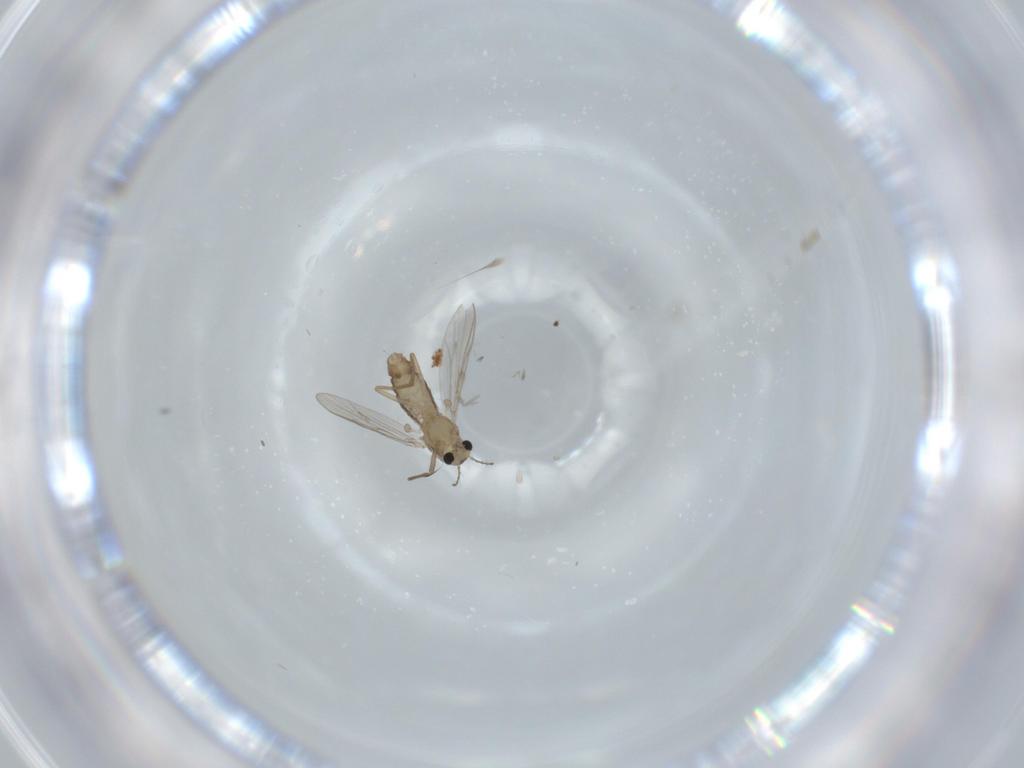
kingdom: Animalia
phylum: Arthropoda
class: Insecta
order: Diptera
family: Chironomidae
